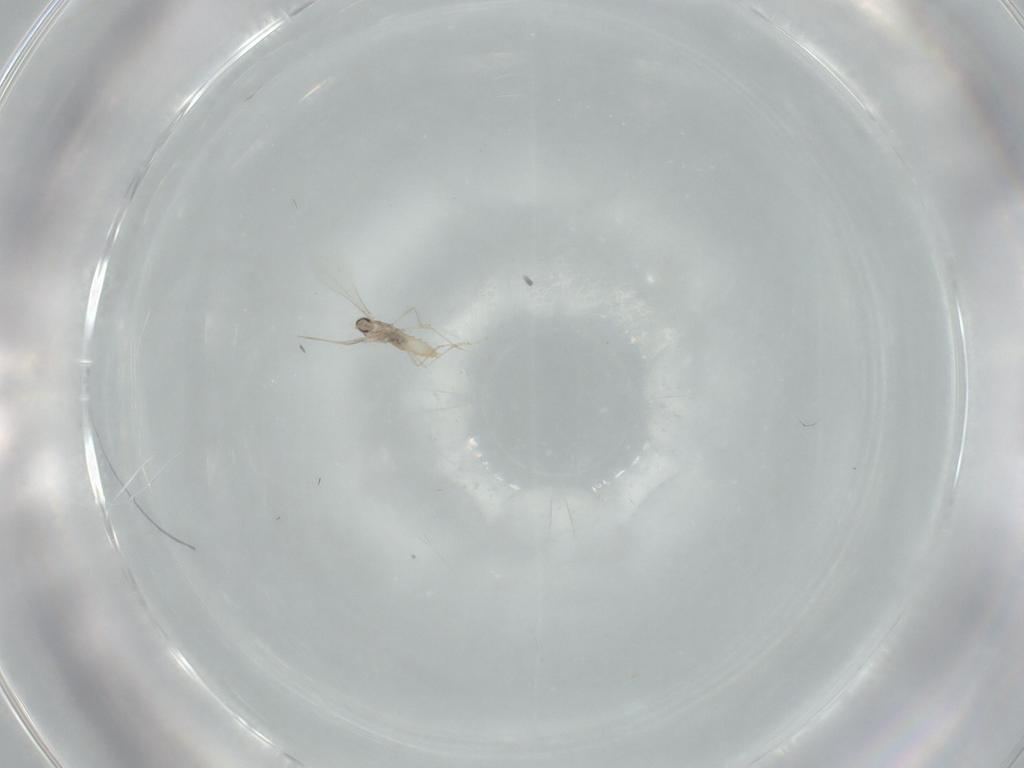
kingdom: Animalia
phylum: Arthropoda
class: Insecta
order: Diptera
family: Cecidomyiidae
